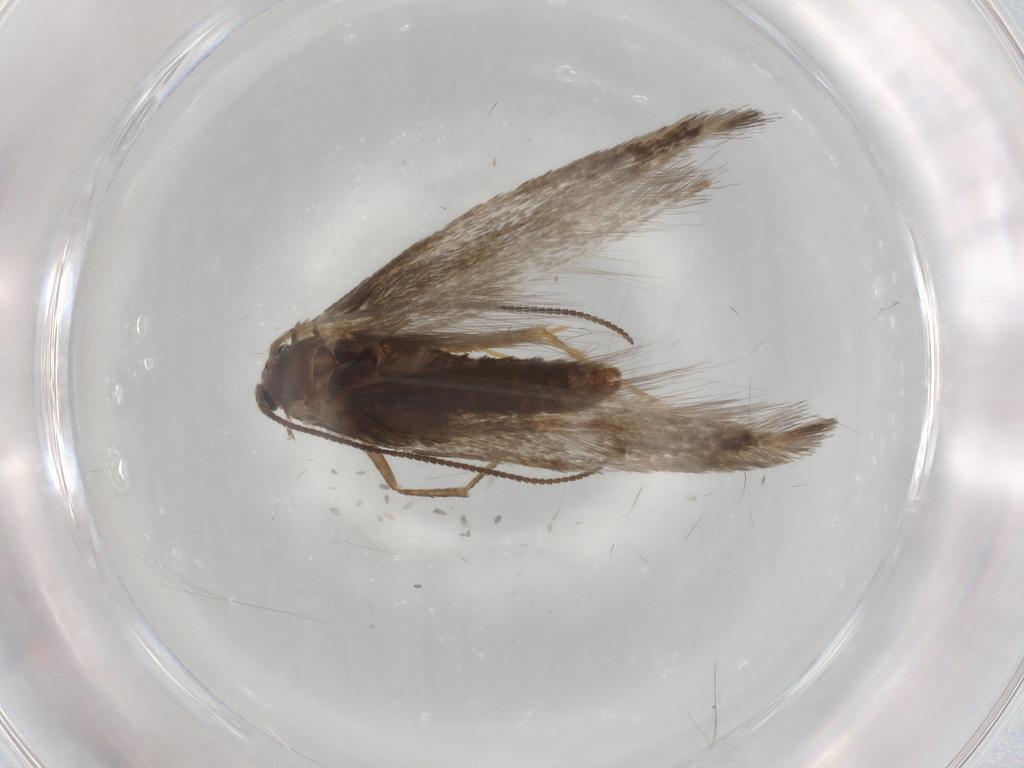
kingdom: Animalia
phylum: Arthropoda
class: Insecta
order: Lepidoptera
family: Nepticulidae
